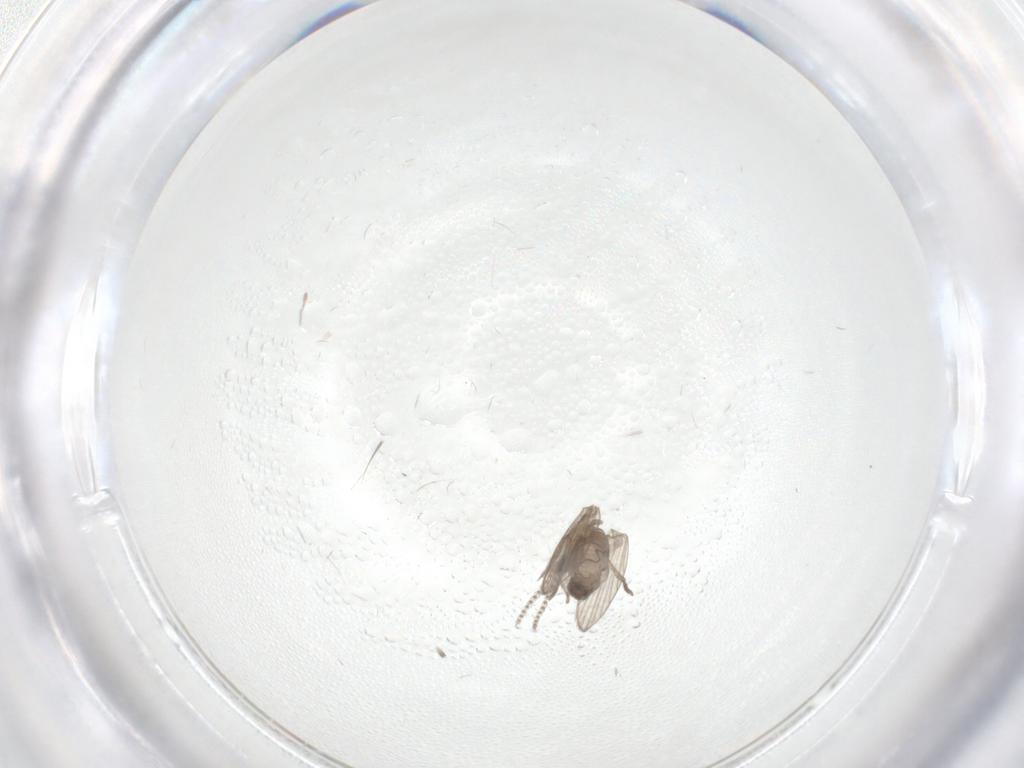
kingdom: Animalia
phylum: Arthropoda
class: Insecta
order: Diptera
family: Psychodidae
